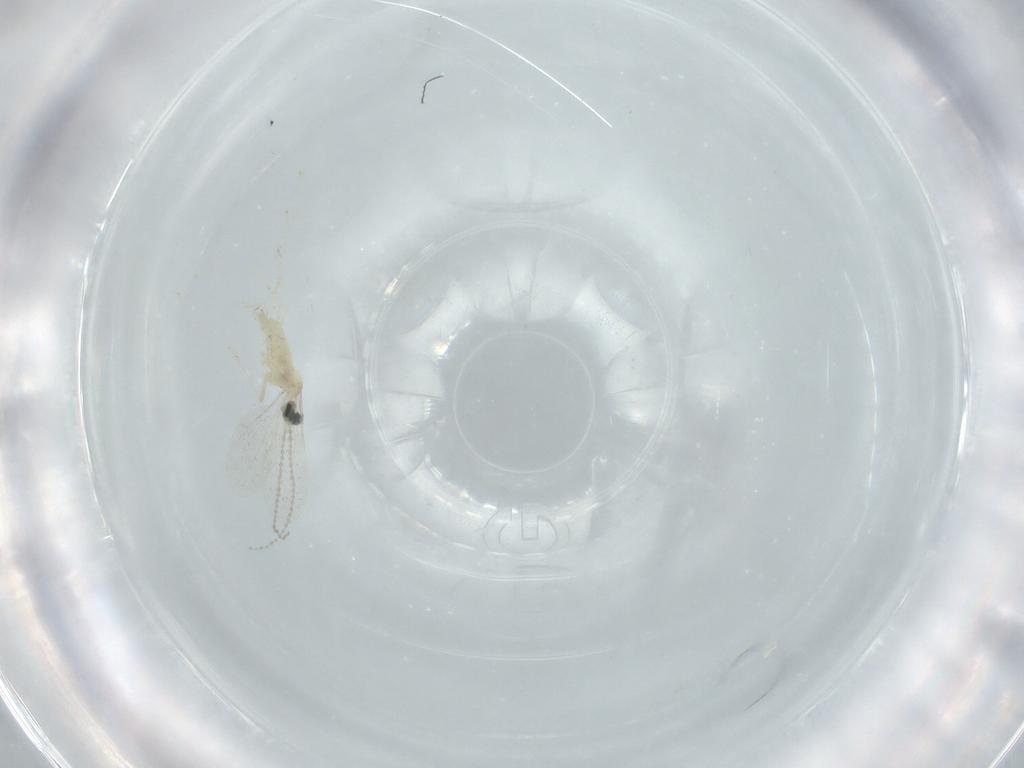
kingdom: Animalia
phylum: Arthropoda
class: Insecta
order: Diptera
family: Cecidomyiidae
